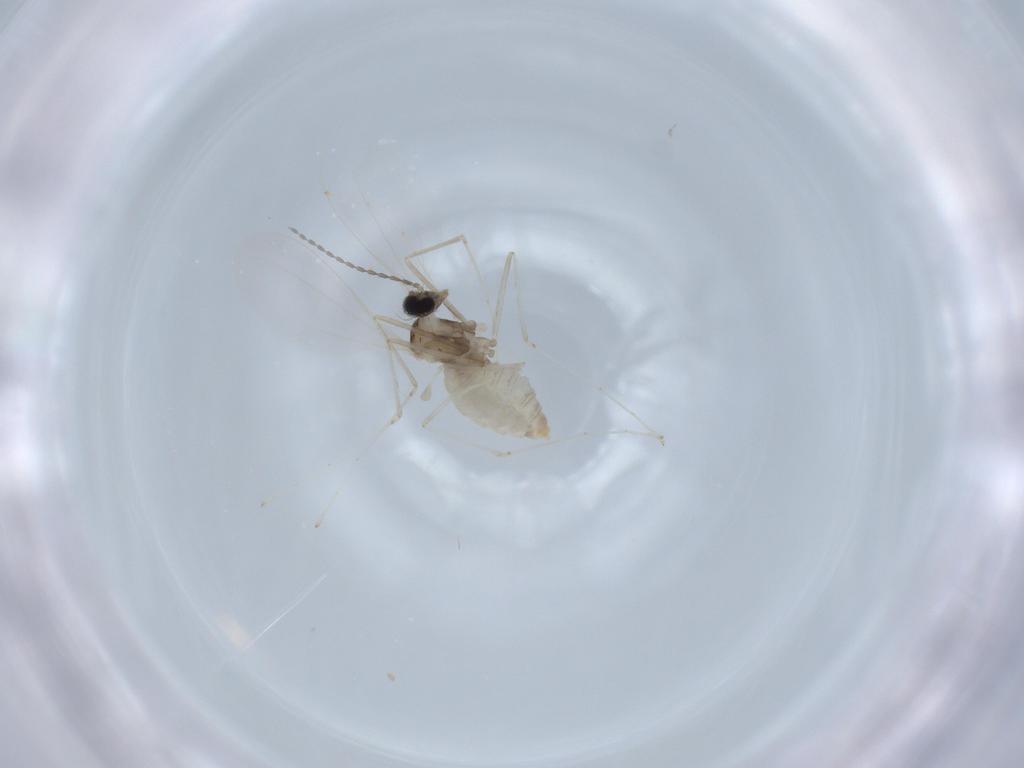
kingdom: Animalia
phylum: Arthropoda
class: Insecta
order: Diptera
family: Cecidomyiidae
